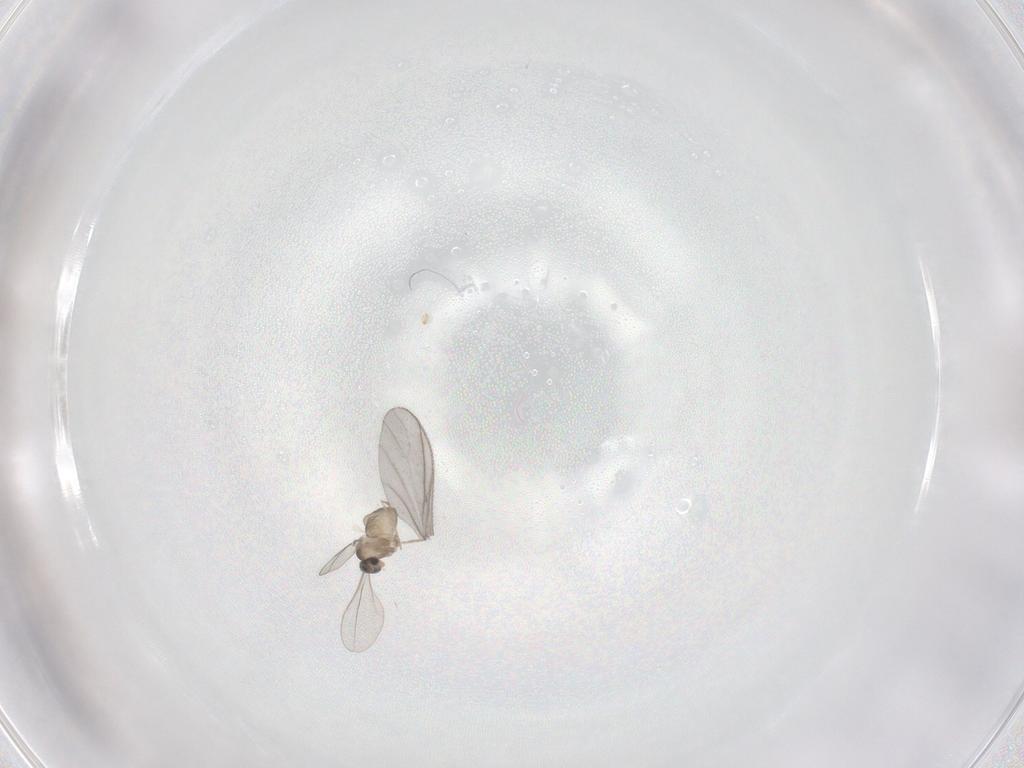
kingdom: Animalia
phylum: Arthropoda
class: Insecta
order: Diptera
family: Cecidomyiidae
